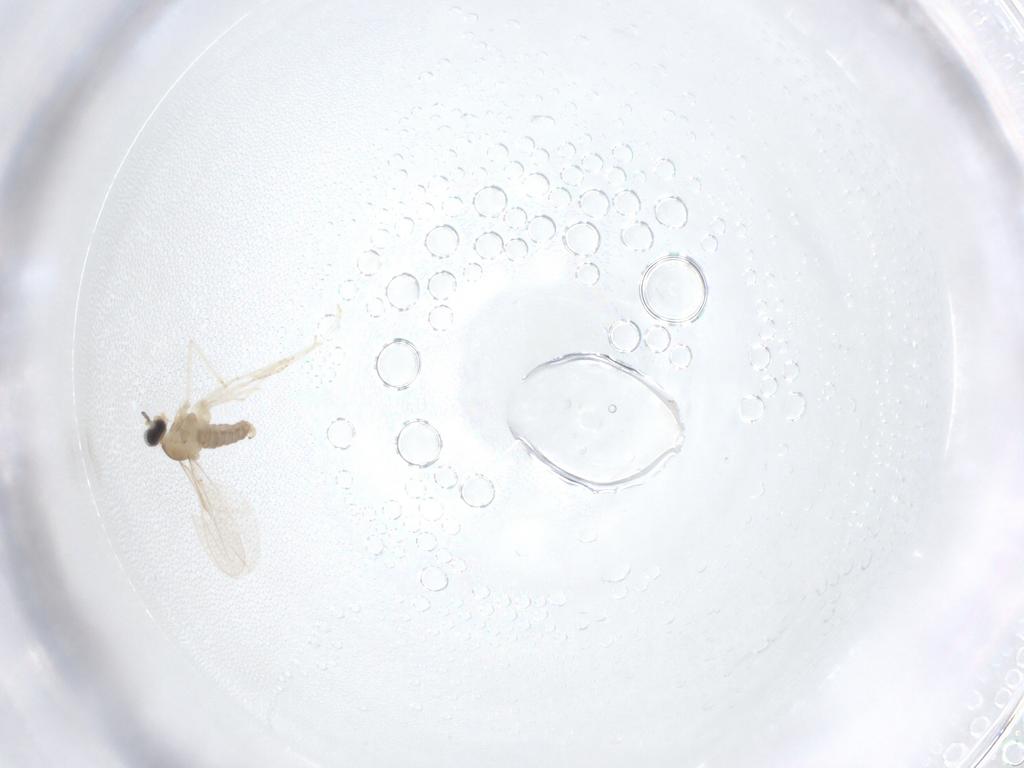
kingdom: Animalia
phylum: Arthropoda
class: Insecta
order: Diptera
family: Cecidomyiidae
